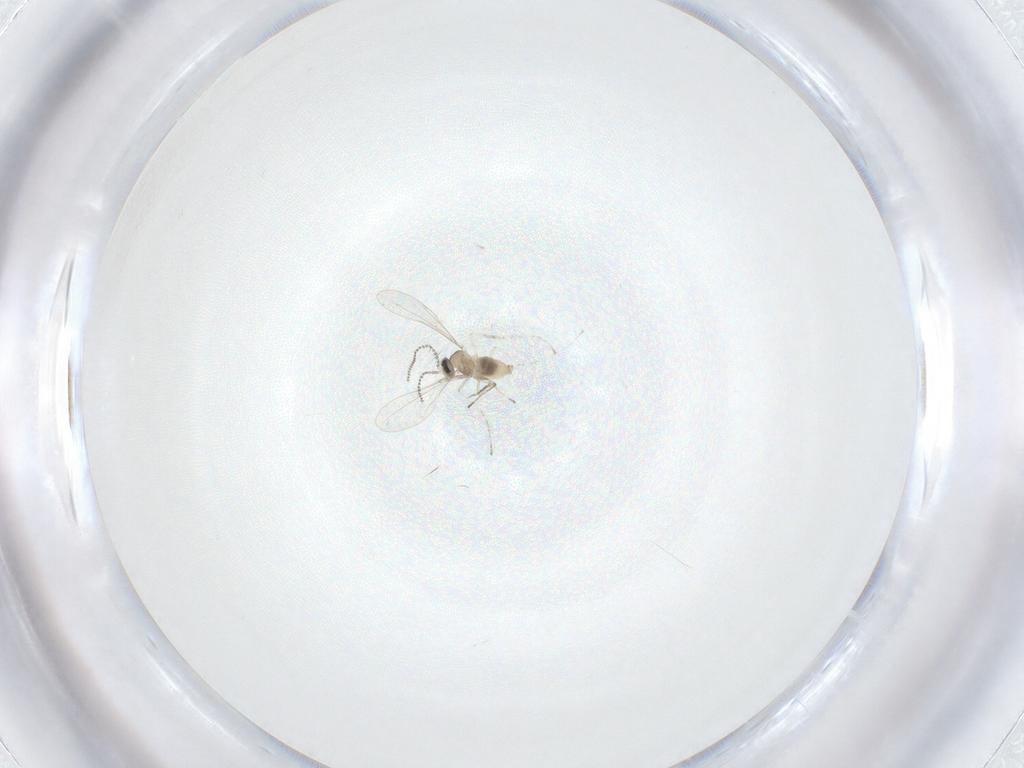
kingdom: Animalia
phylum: Arthropoda
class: Insecta
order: Diptera
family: Cecidomyiidae
